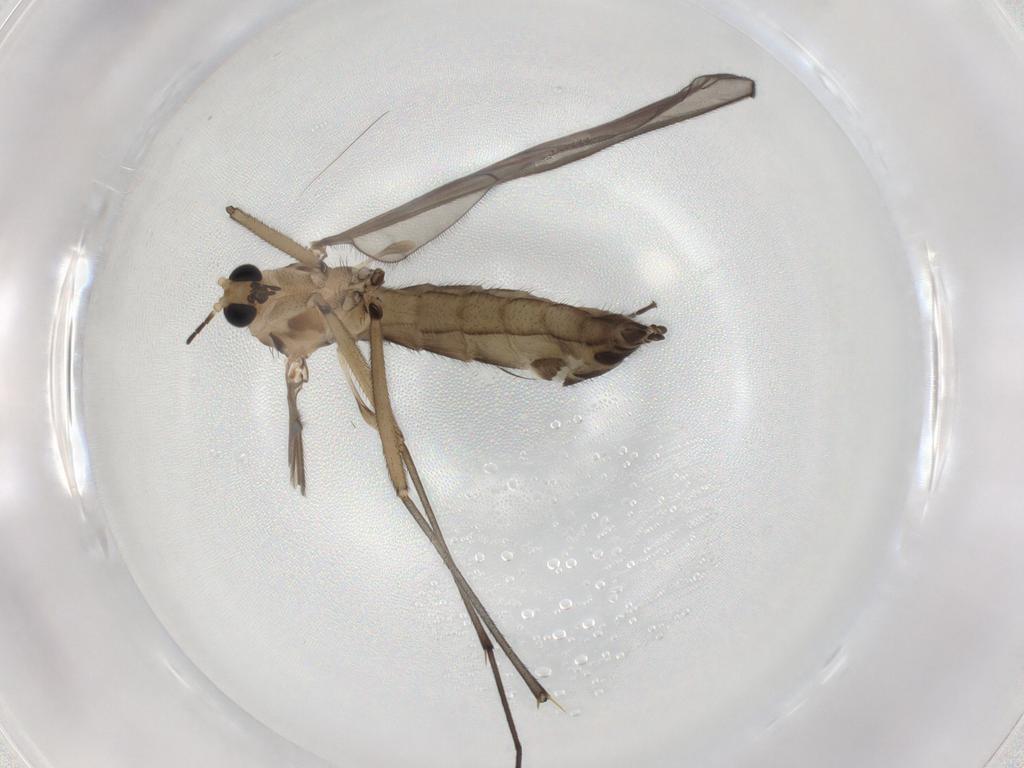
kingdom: Animalia
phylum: Arthropoda
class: Insecta
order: Diptera
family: Sciaridae
